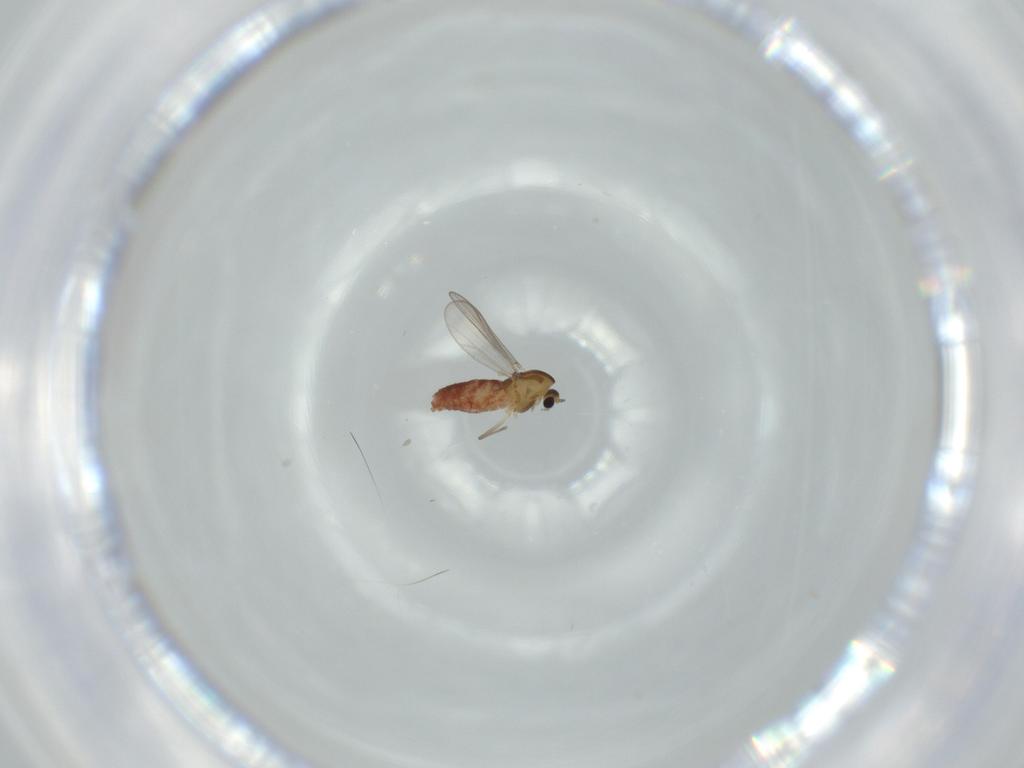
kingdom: Animalia
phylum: Arthropoda
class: Insecta
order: Diptera
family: Chironomidae
